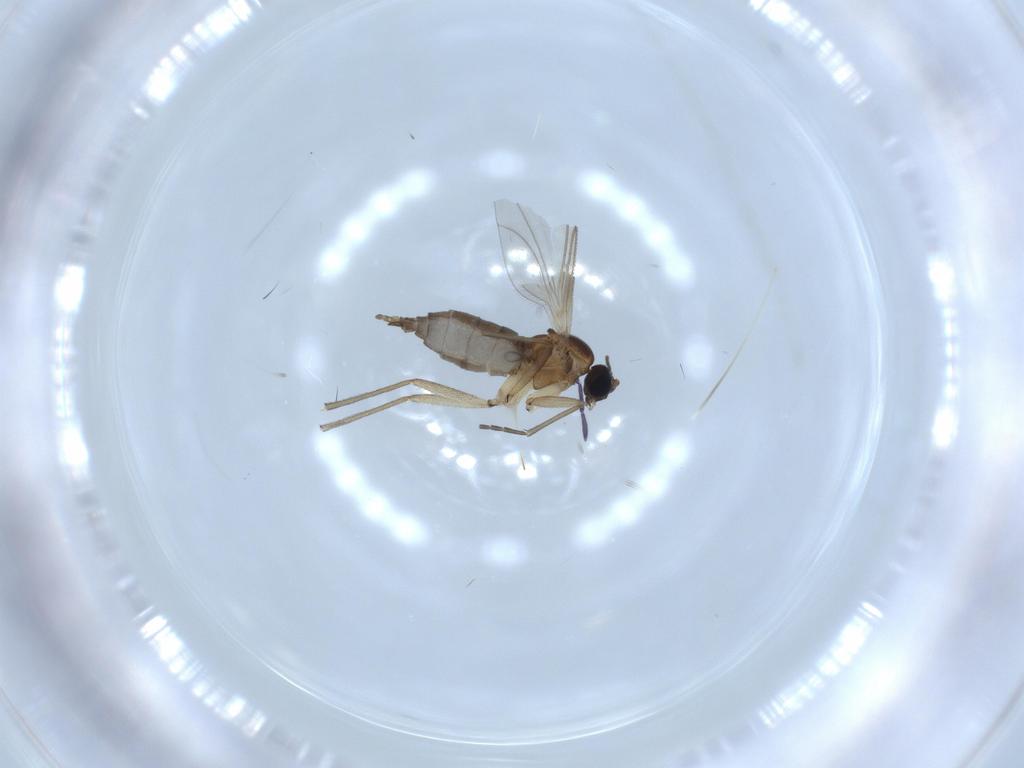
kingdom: Animalia
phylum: Arthropoda
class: Insecta
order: Diptera
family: Sciaridae
